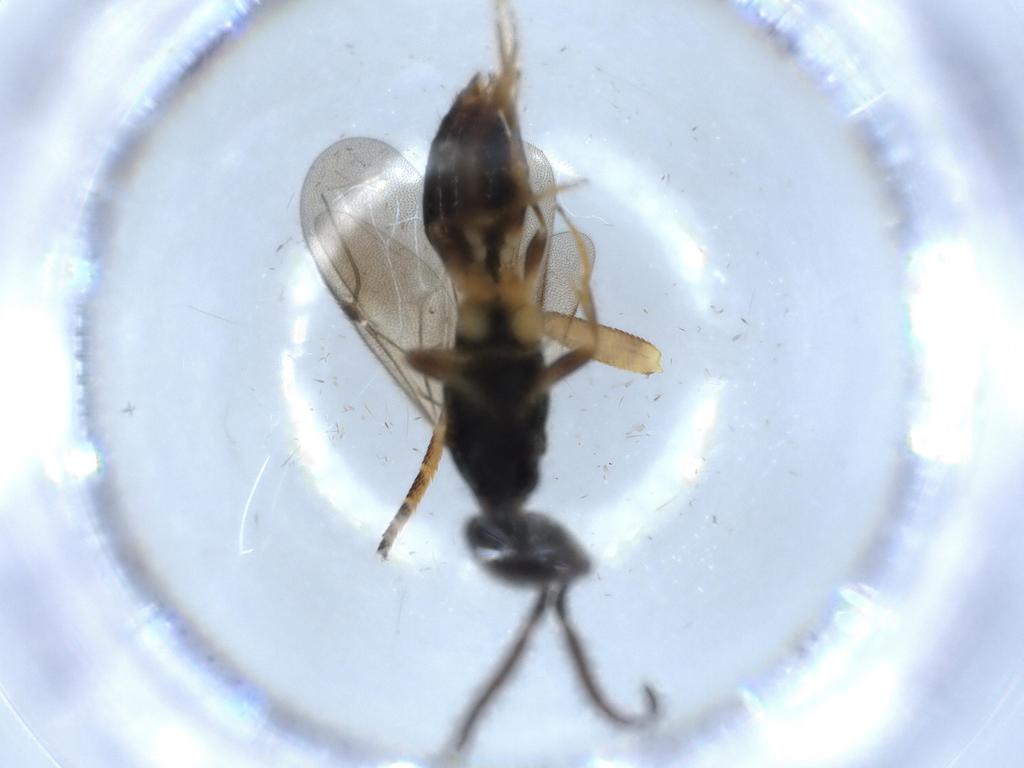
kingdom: Animalia
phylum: Arthropoda
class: Insecta
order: Hymenoptera
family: Bethylidae
